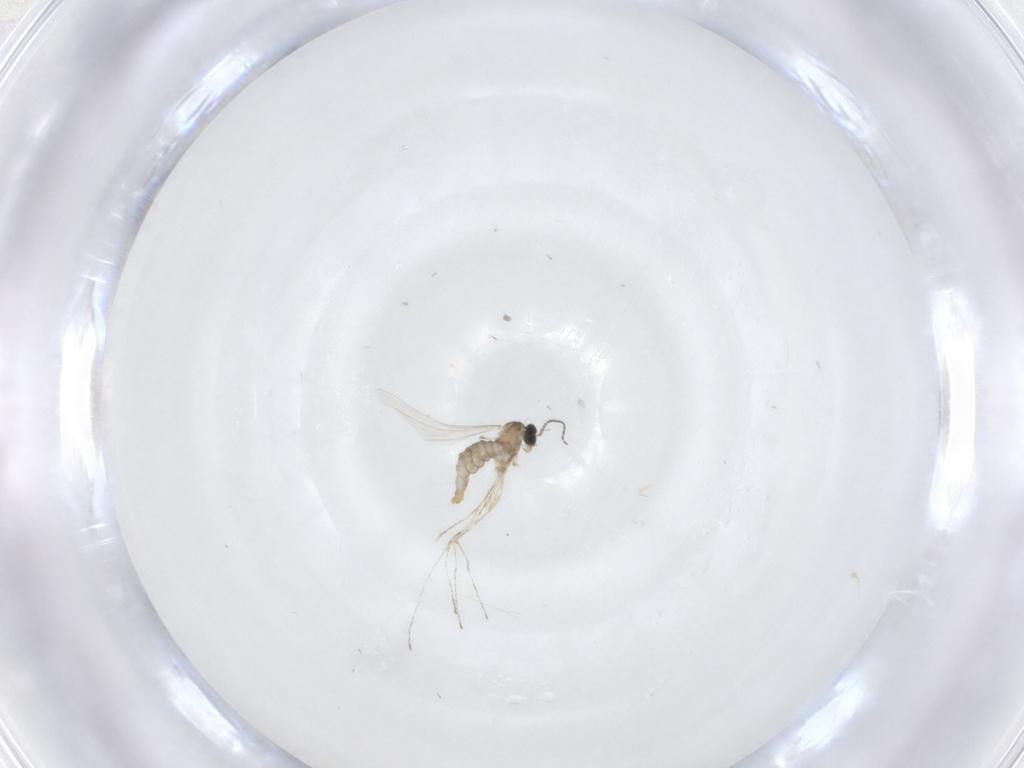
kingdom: Animalia
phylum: Arthropoda
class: Insecta
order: Diptera
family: Cecidomyiidae
